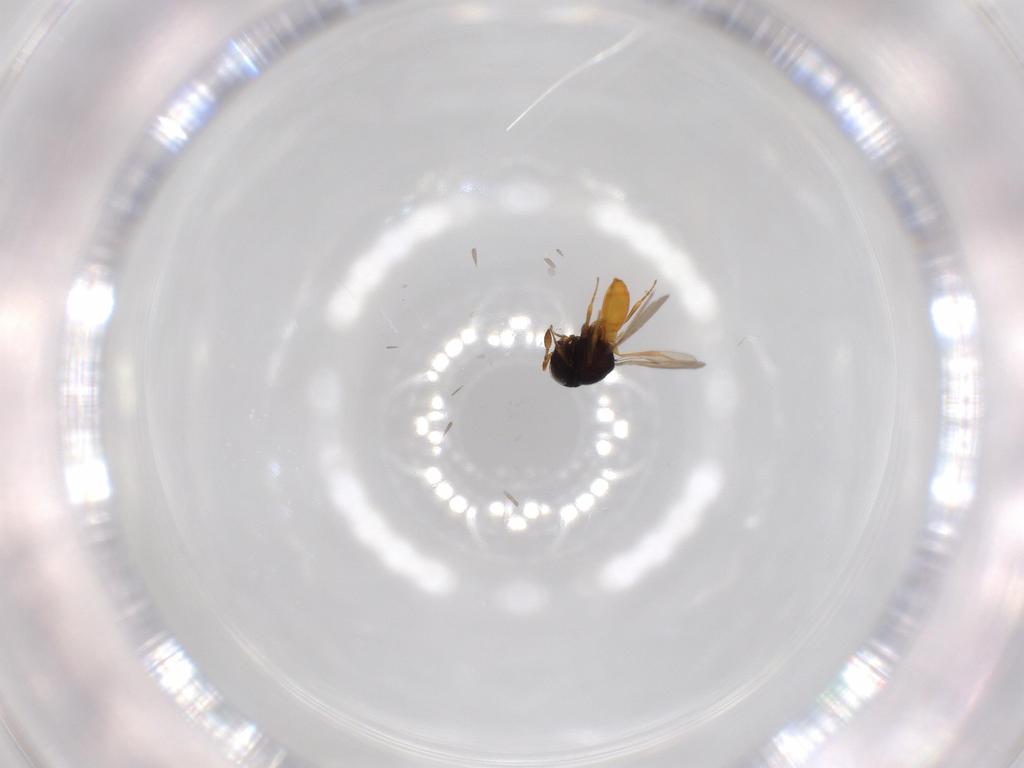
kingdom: Animalia
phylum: Arthropoda
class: Insecta
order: Hymenoptera
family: Scelionidae
